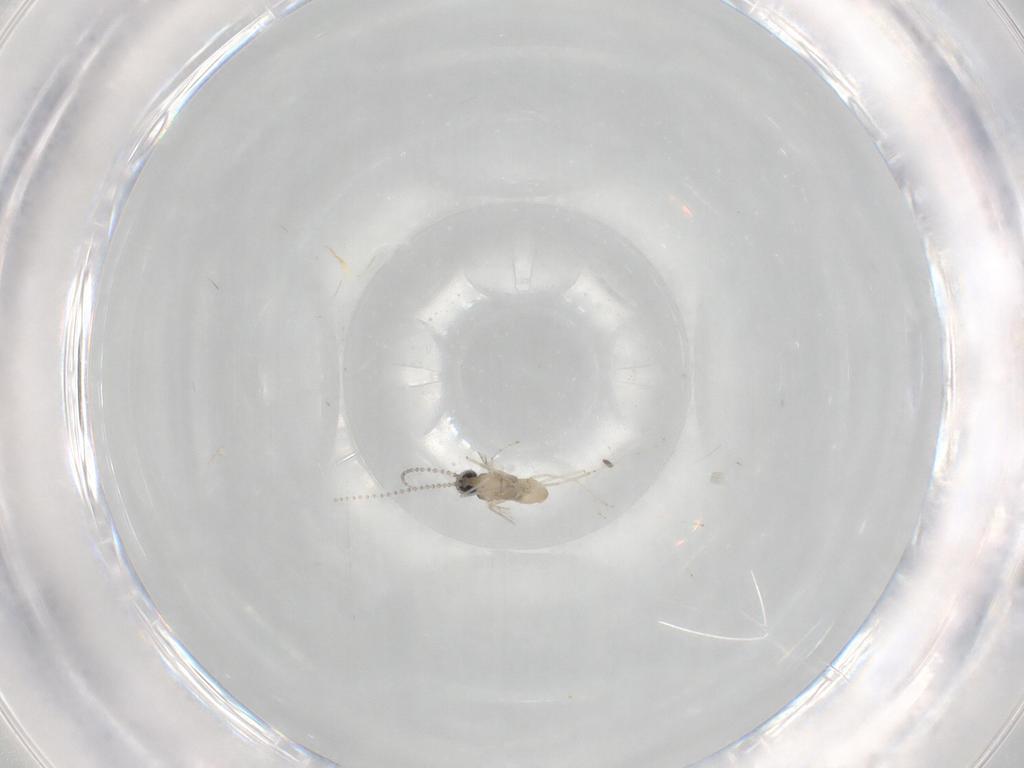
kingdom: Animalia
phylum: Arthropoda
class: Insecta
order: Diptera
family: Cecidomyiidae
